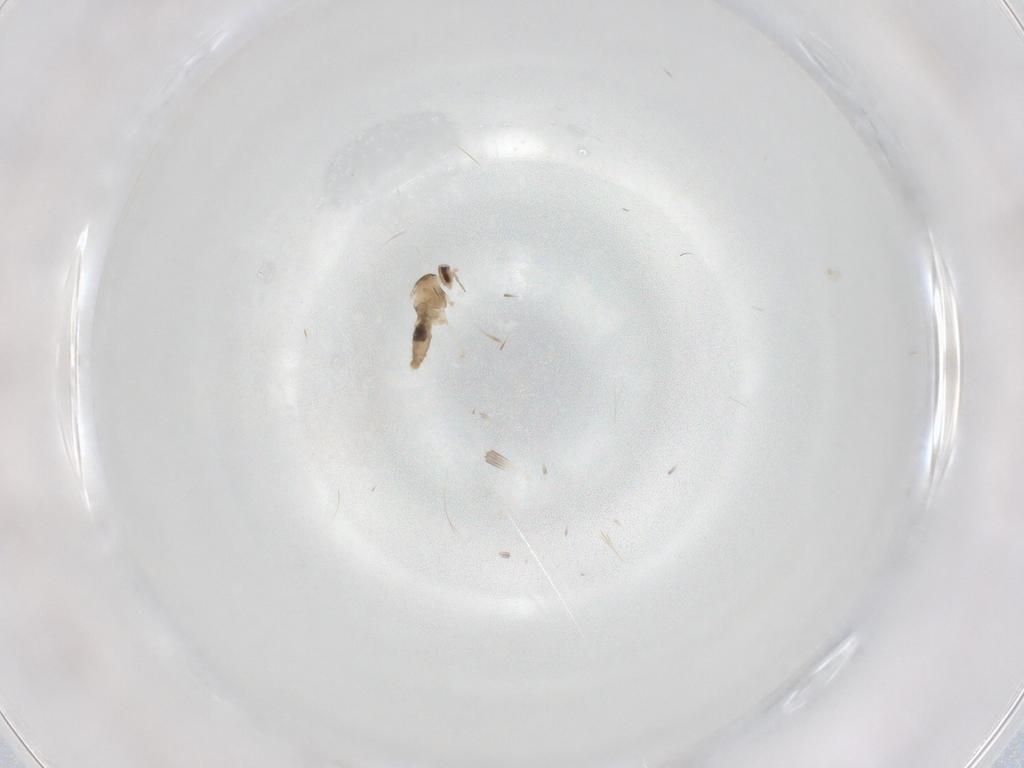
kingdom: Animalia
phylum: Arthropoda
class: Insecta
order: Diptera
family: Cecidomyiidae
